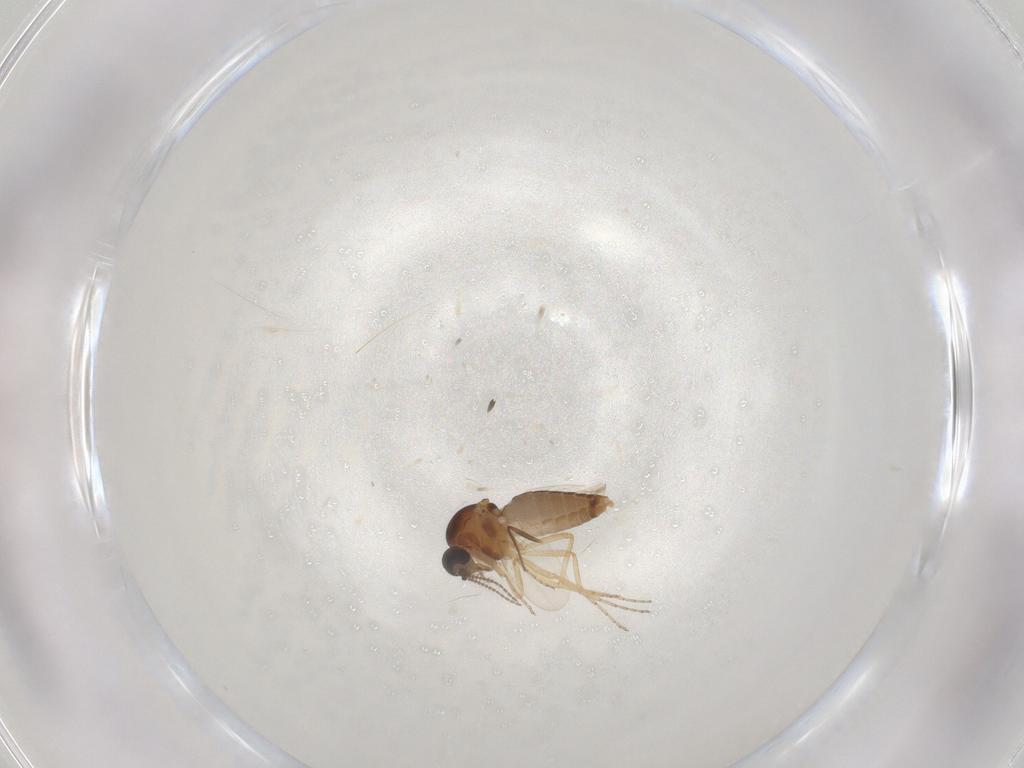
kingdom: Animalia
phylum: Arthropoda
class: Insecta
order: Diptera
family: Ceratopogonidae
